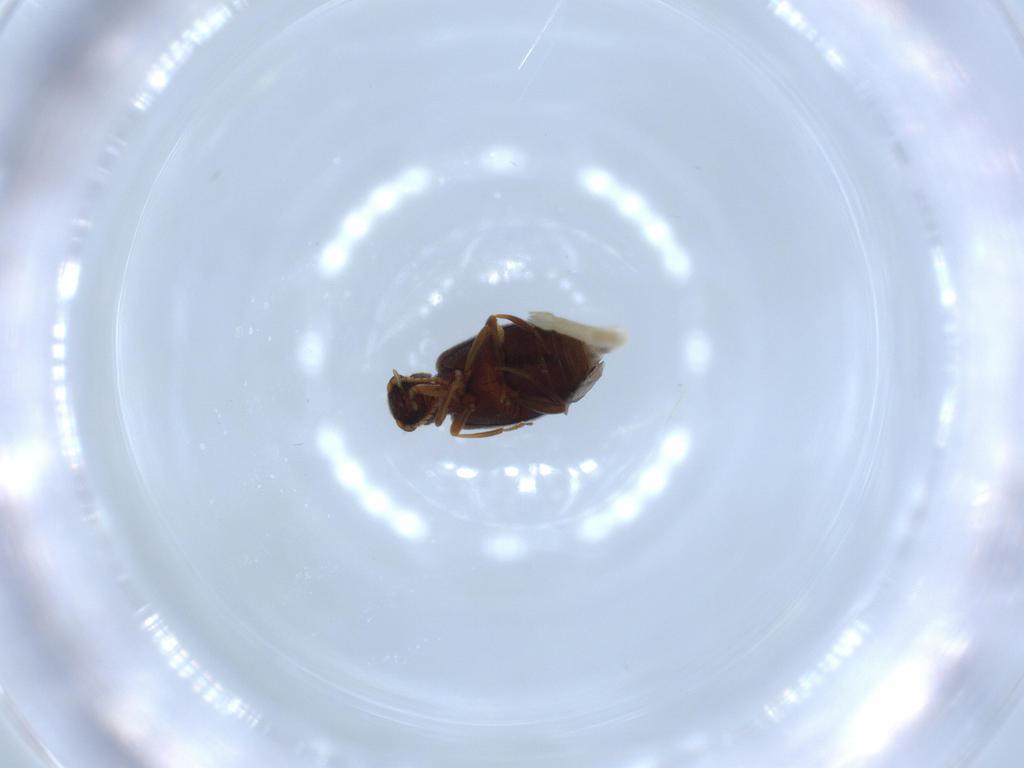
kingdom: Animalia
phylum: Arthropoda
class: Insecta
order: Coleoptera
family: Aderidae
